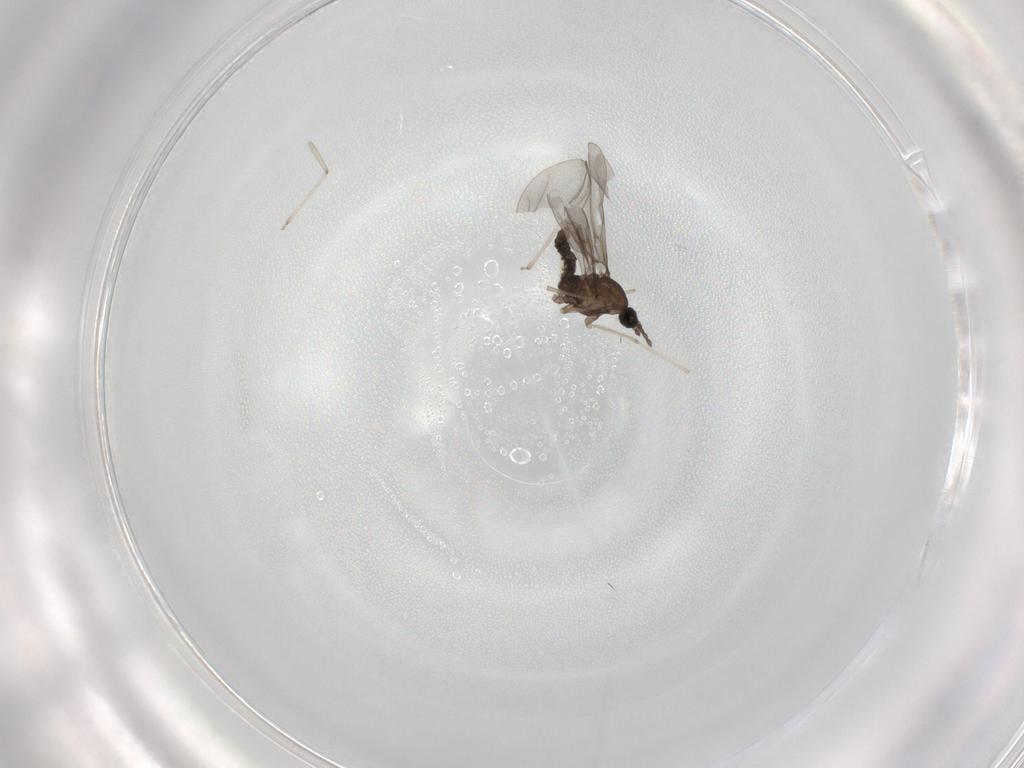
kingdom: Animalia
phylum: Arthropoda
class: Insecta
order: Diptera
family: Cecidomyiidae
